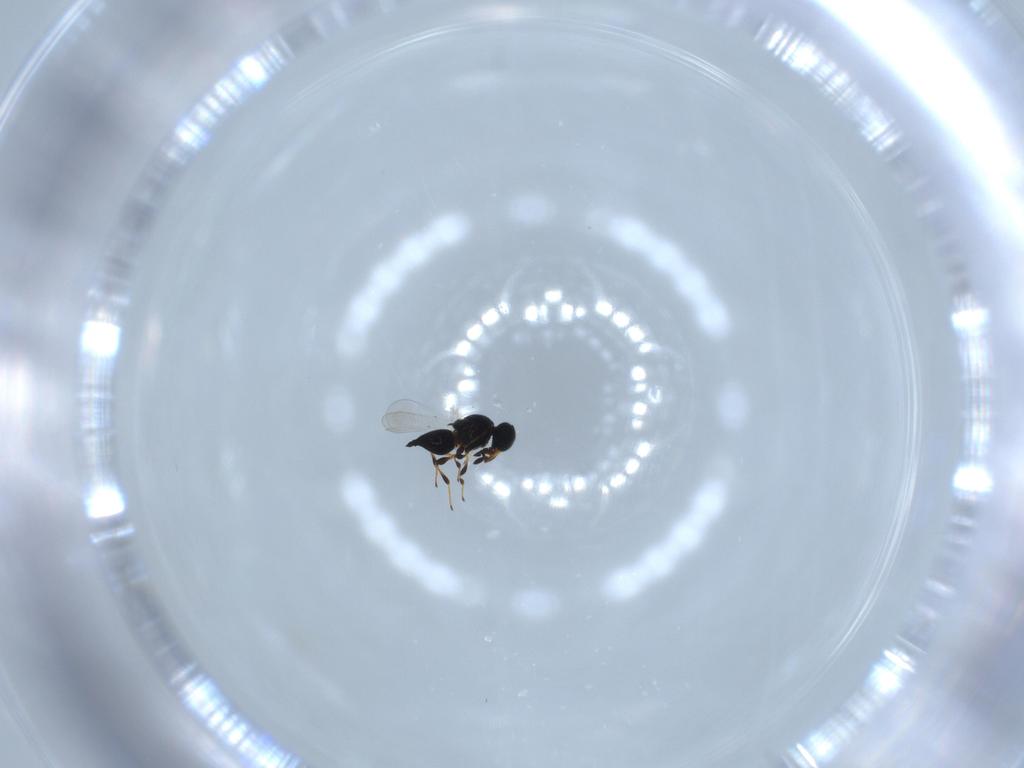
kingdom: Animalia
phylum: Arthropoda
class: Insecta
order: Hymenoptera
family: Platygastridae
